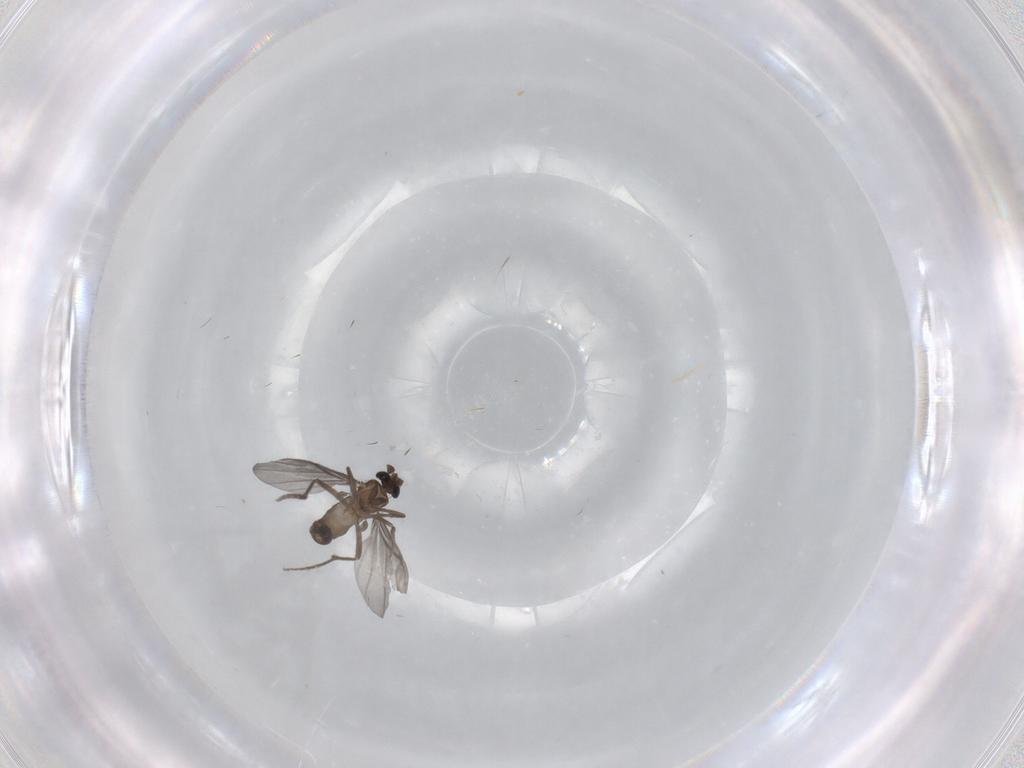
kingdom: Animalia
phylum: Arthropoda
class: Insecta
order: Diptera
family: Phoridae
